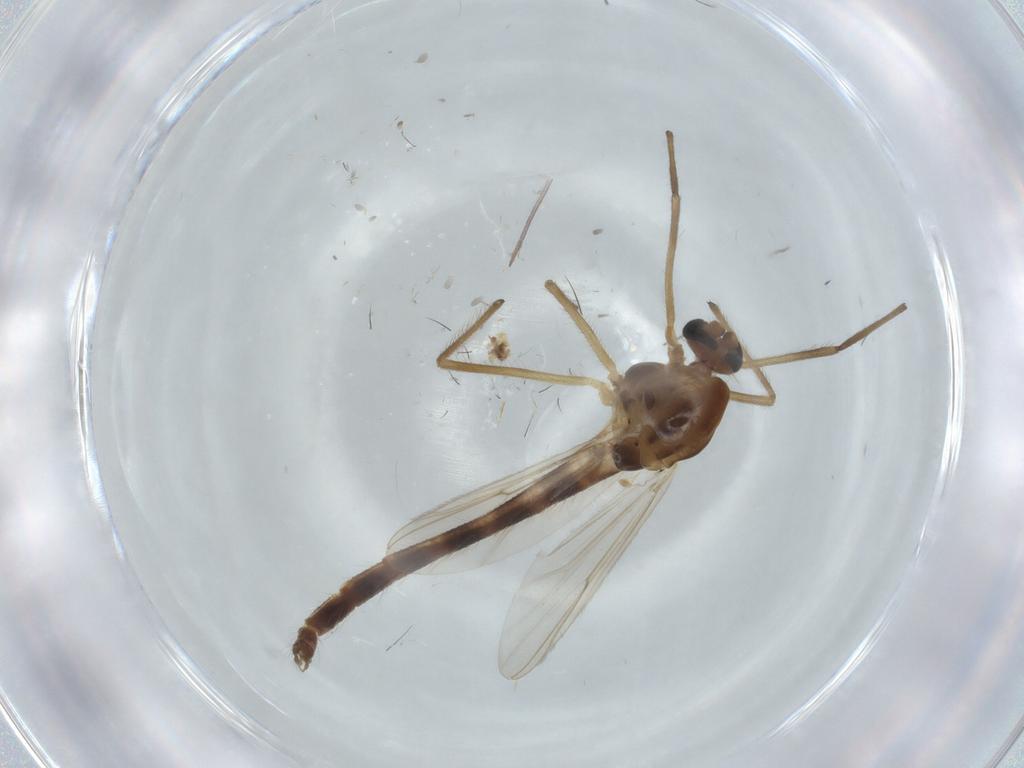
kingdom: Animalia
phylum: Arthropoda
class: Insecta
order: Diptera
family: Chironomidae
